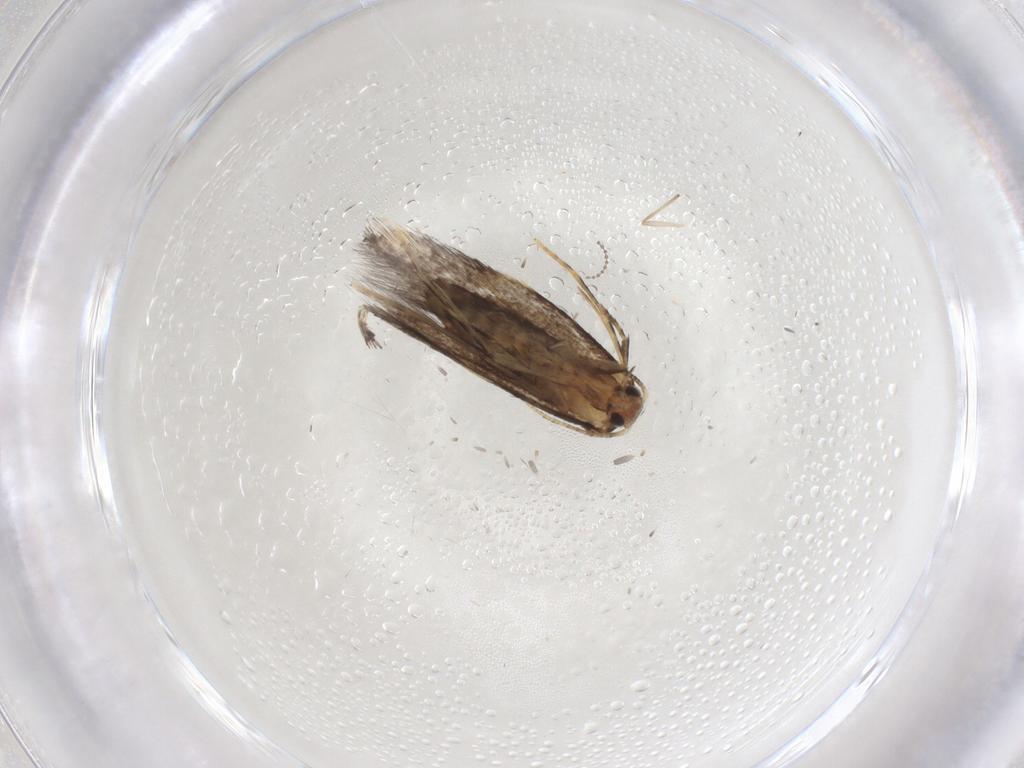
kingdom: Animalia
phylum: Arthropoda
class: Insecta
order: Lepidoptera
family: Tineidae
